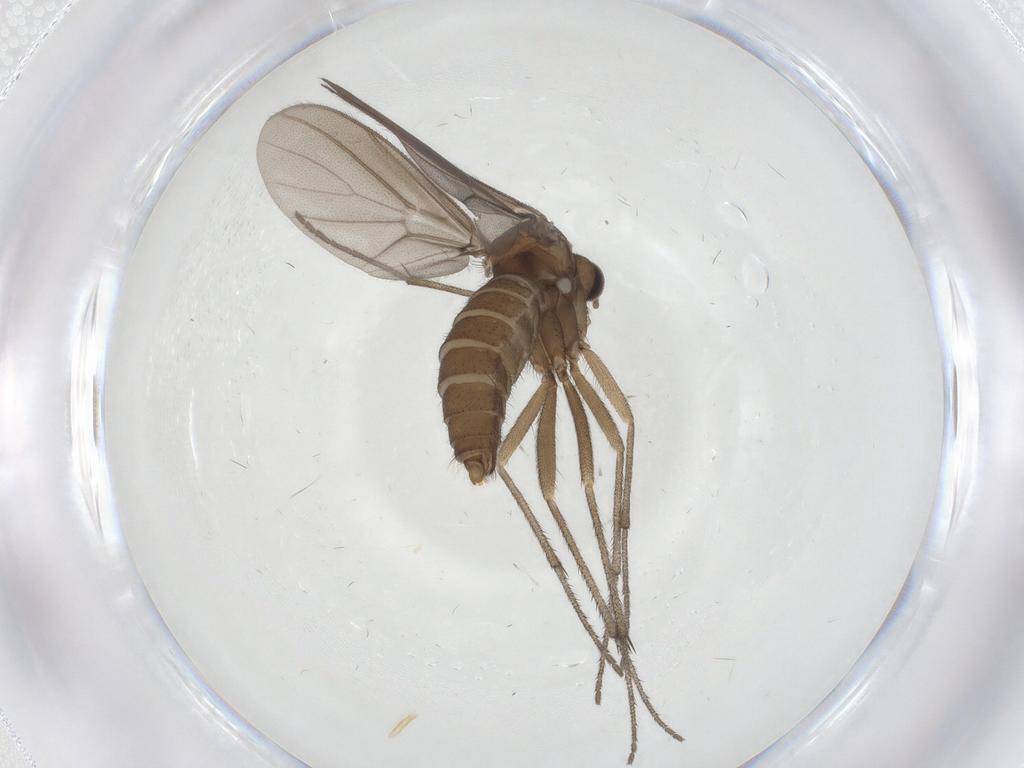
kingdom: Animalia
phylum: Arthropoda
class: Insecta
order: Diptera
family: Diadocidiidae
